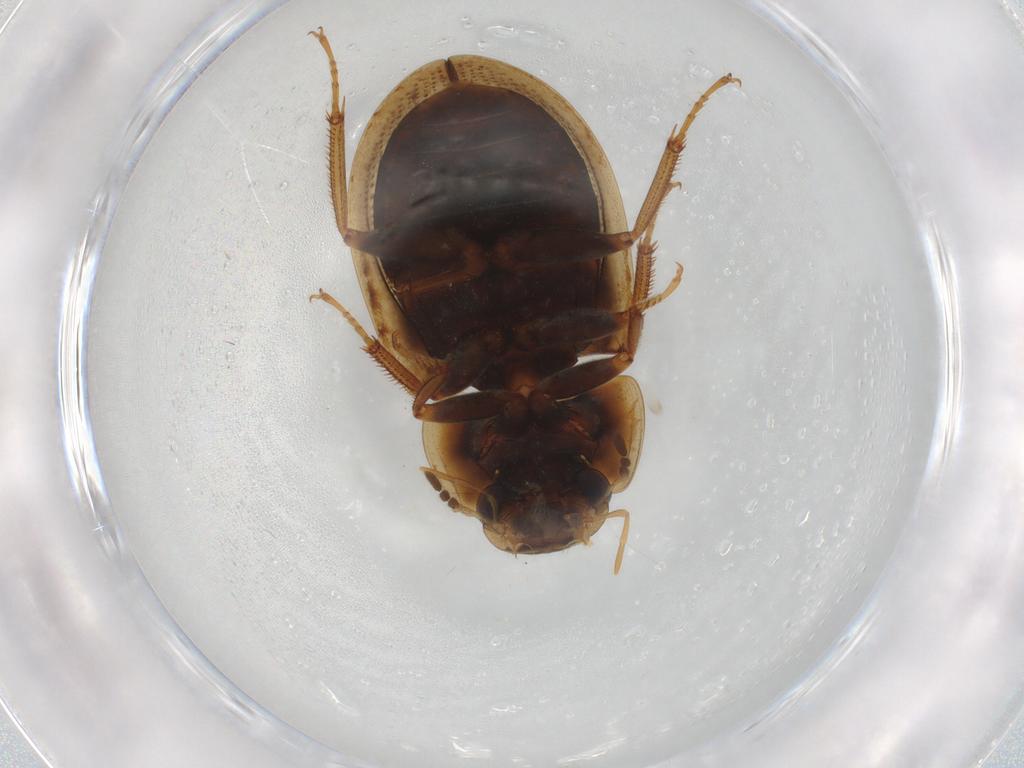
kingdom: Animalia
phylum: Arthropoda
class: Insecta
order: Coleoptera
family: Hydrophilidae
